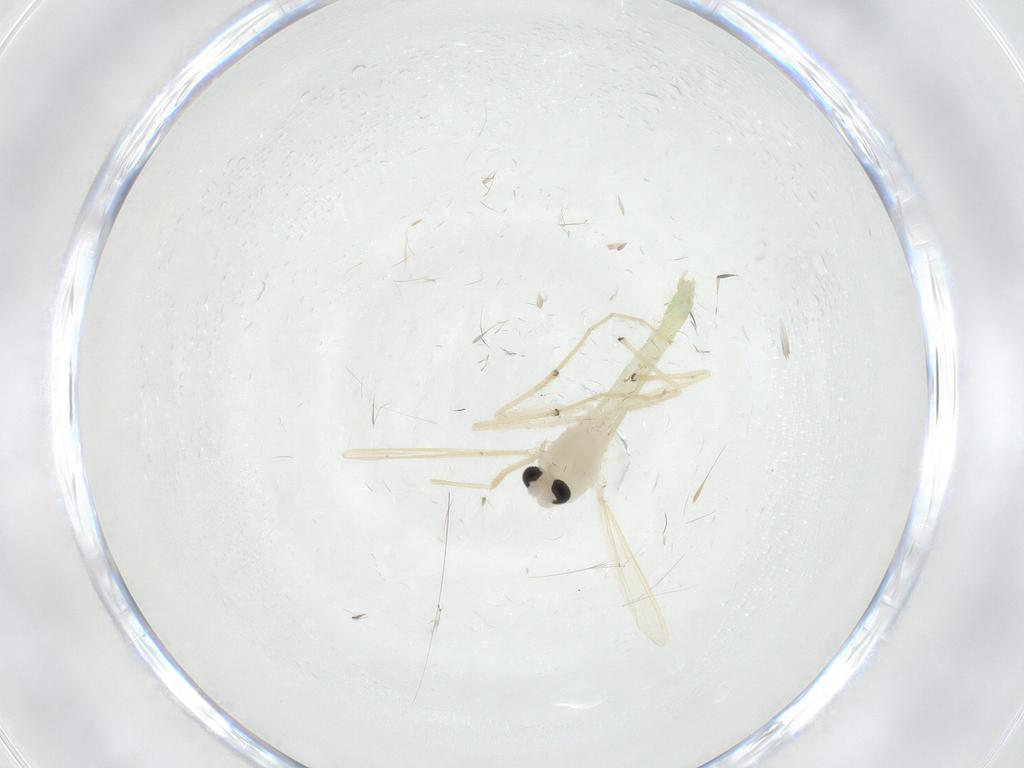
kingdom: Animalia
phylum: Arthropoda
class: Insecta
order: Diptera
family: Chironomidae
